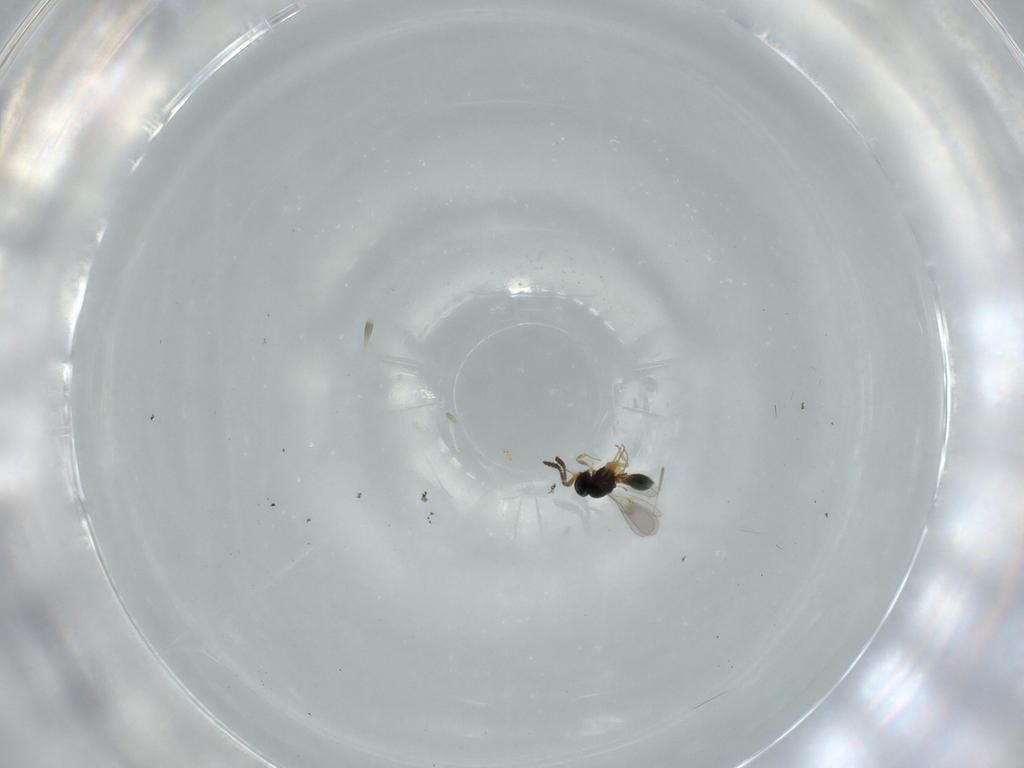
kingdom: Animalia
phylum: Arthropoda
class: Insecta
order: Hymenoptera
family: Scelionidae
